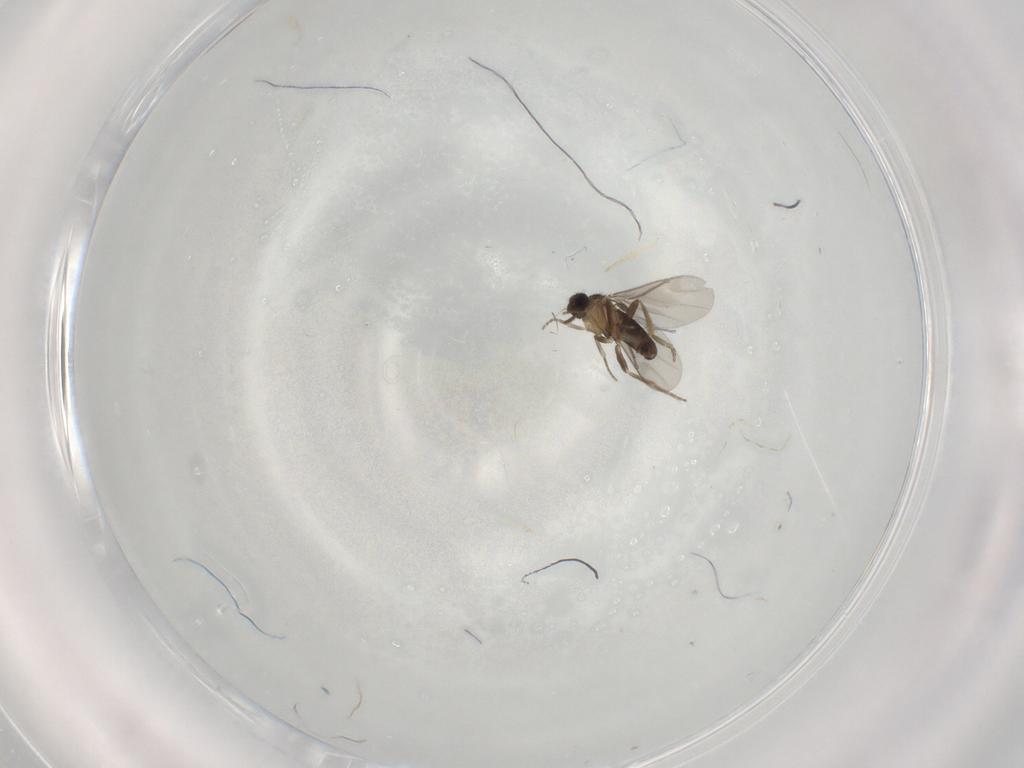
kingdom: Animalia
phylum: Arthropoda
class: Insecta
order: Diptera
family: Phoridae
